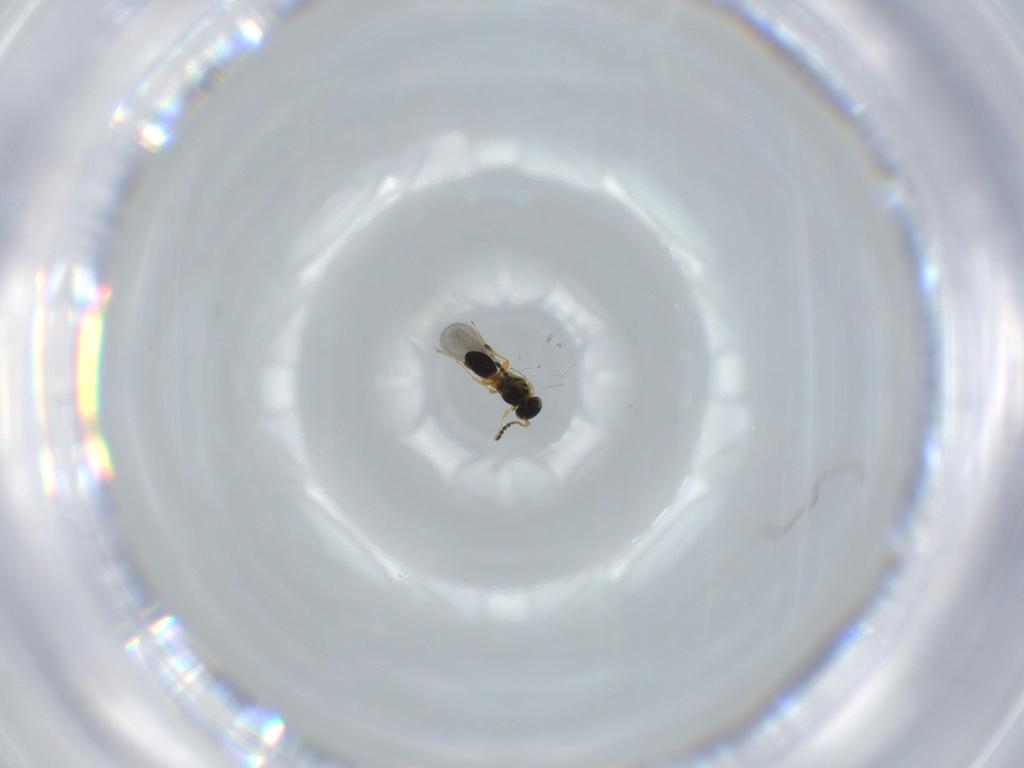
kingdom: Animalia
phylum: Arthropoda
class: Insecta
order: Hymenoptera
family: Platygastridae
